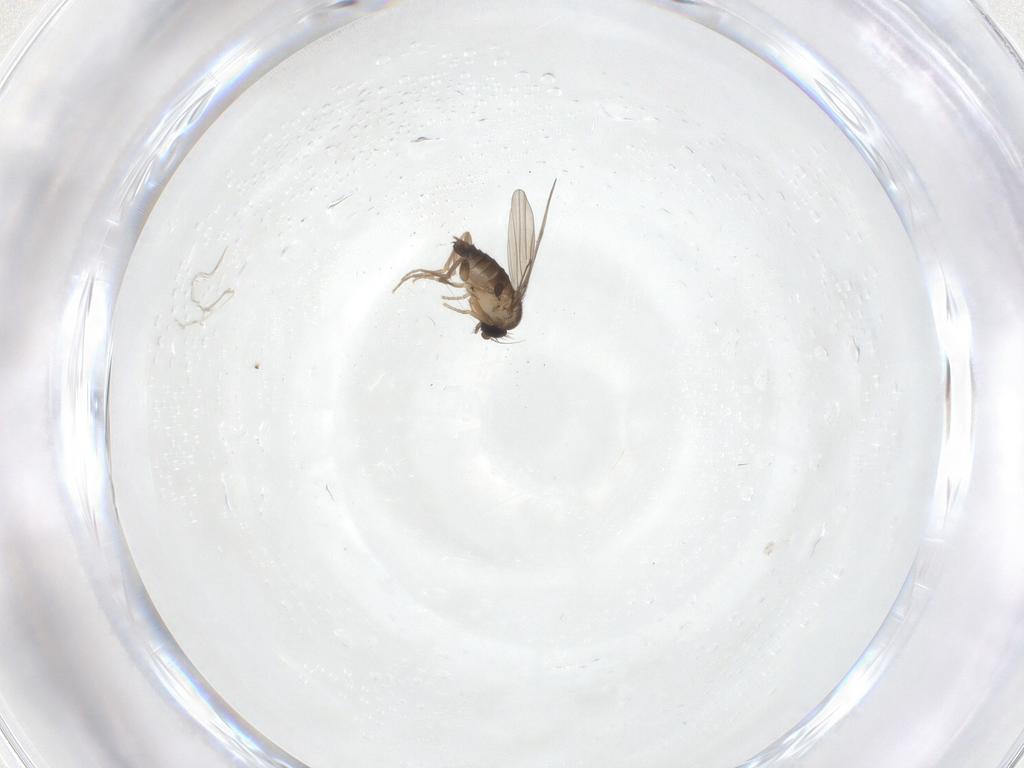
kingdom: Animalia
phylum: Arthropoda
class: Insecta
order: Diptera
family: Phoridae
